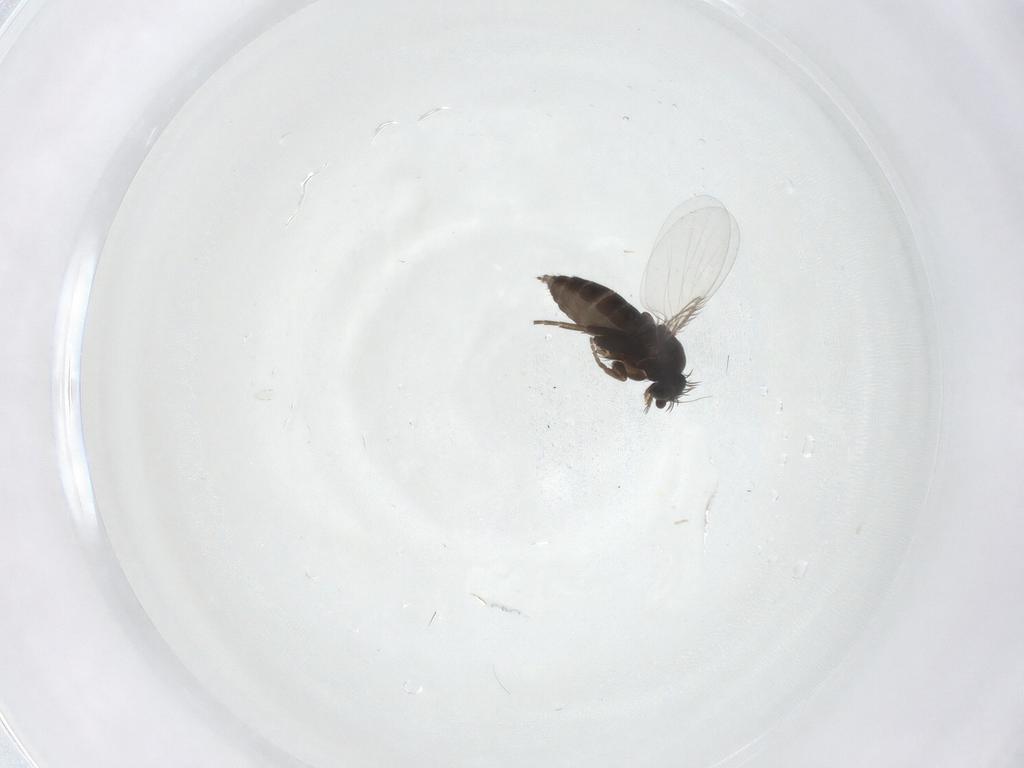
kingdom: Animalia
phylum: Arthropoda
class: Insecta
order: Diptera
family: Phoridae
